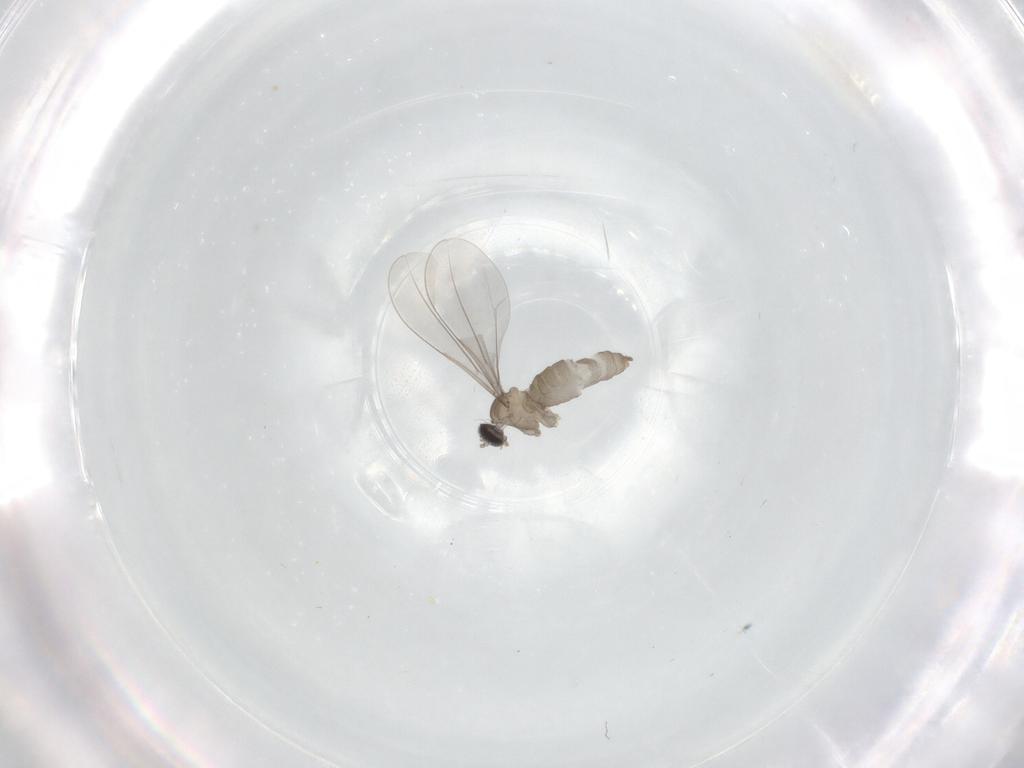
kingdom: Animalia
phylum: Arthropoda
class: Insecta
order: Diptera
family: Cecidomyiidae
